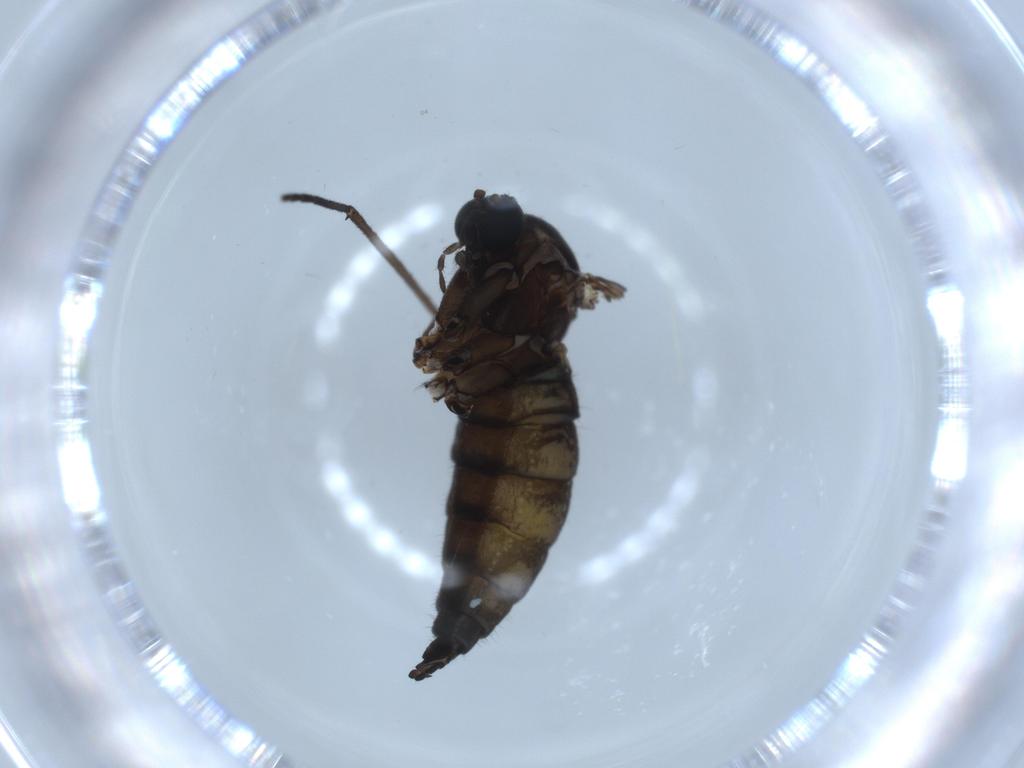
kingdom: Animalia
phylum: Arthropoda
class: Insecta
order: Diptera
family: Sciaridae
